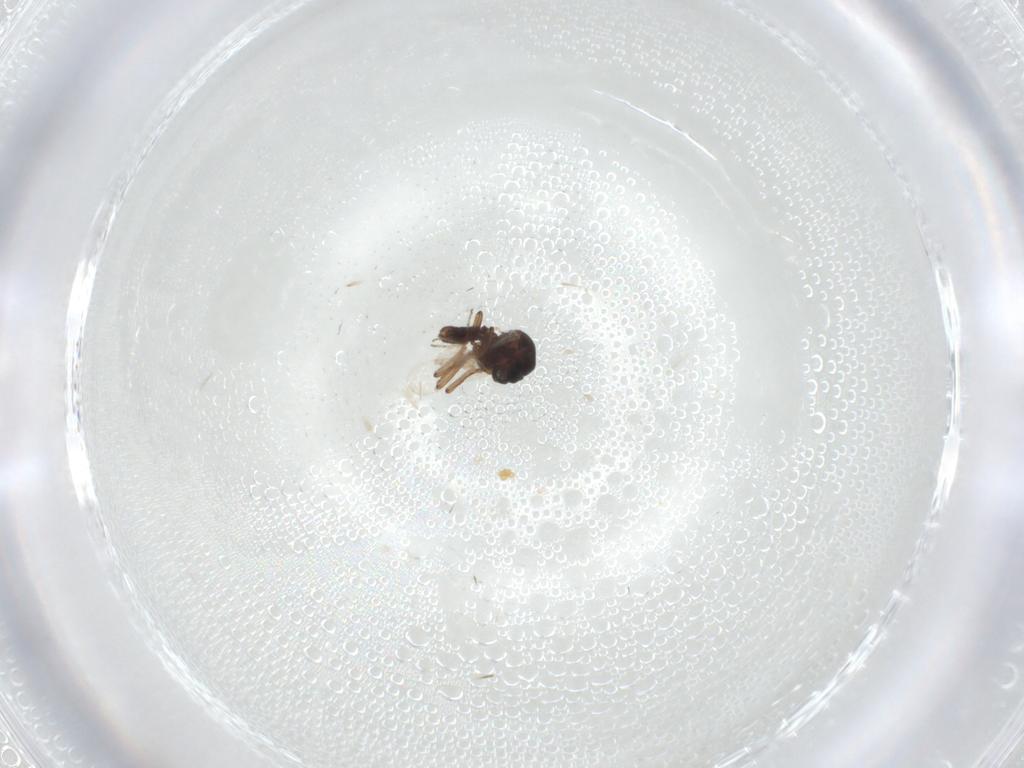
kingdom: Animalia
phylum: Arthropoda
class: Insecta
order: Diptera
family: Ceratopogonidae
